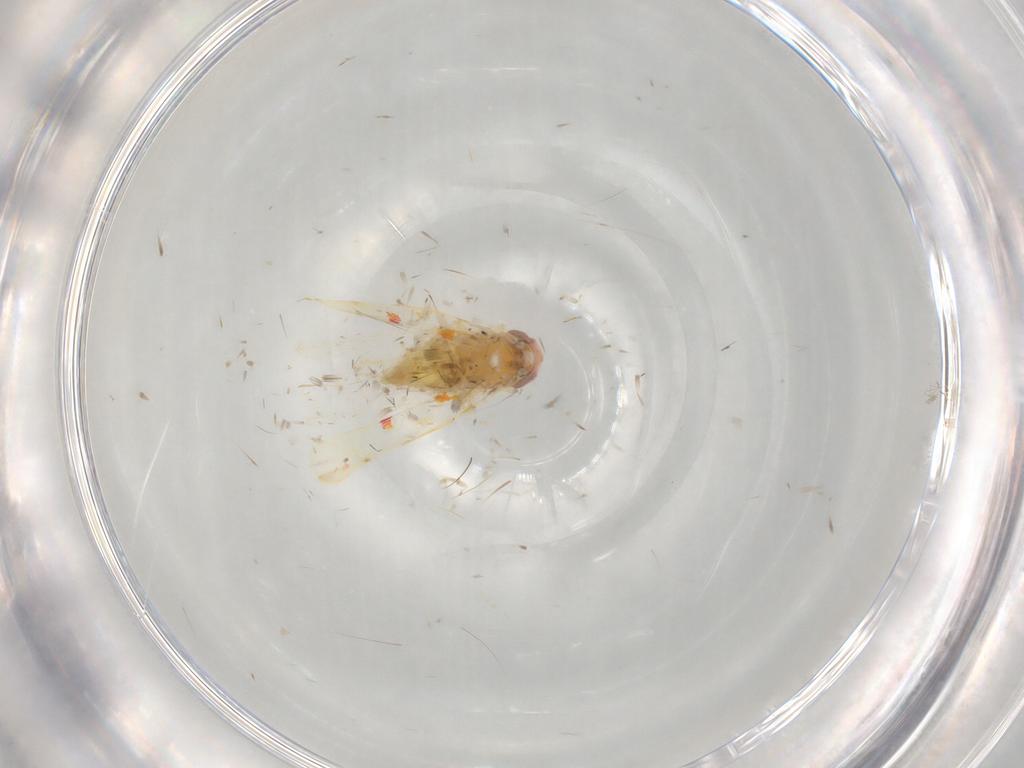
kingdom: Animalia
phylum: Arthropoda
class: Insecta
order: Hemiptera
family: Cicadellidae
